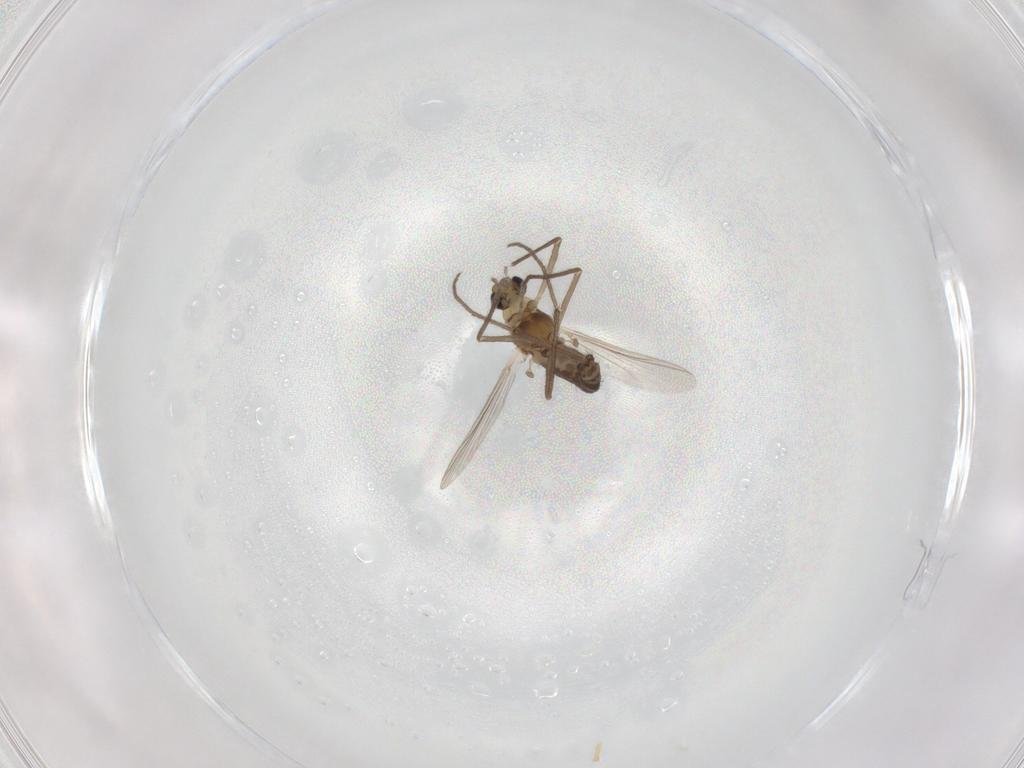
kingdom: Animalia
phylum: Arthropoda
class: Insecta
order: Diptera
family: Chironomidae
